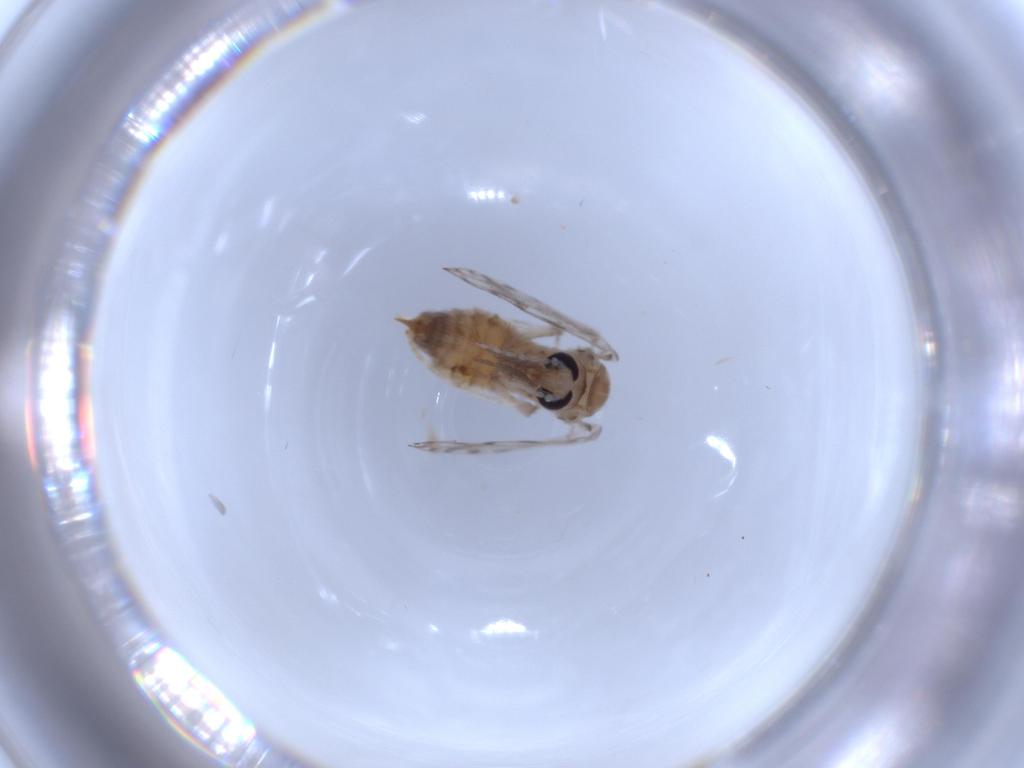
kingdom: Animalia
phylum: Arthropoda
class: Insecta
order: Diptera
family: Psychodidae
